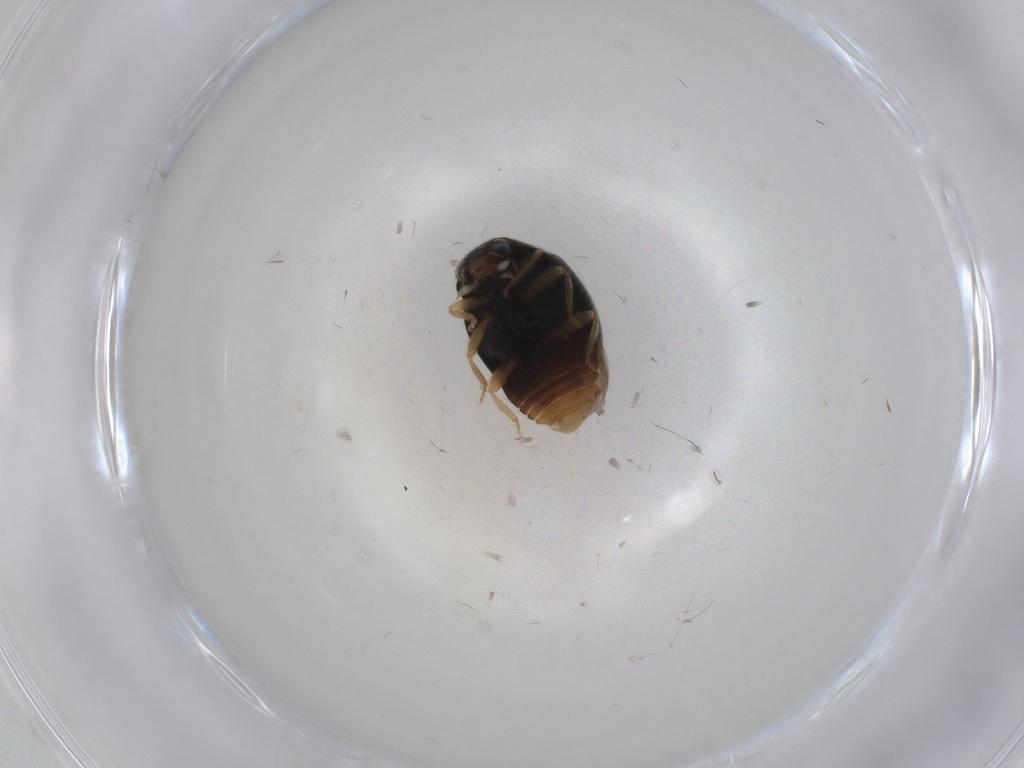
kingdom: Animalia
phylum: Arthropoda
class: Insecta
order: Coleoptera
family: Coccinellidae
